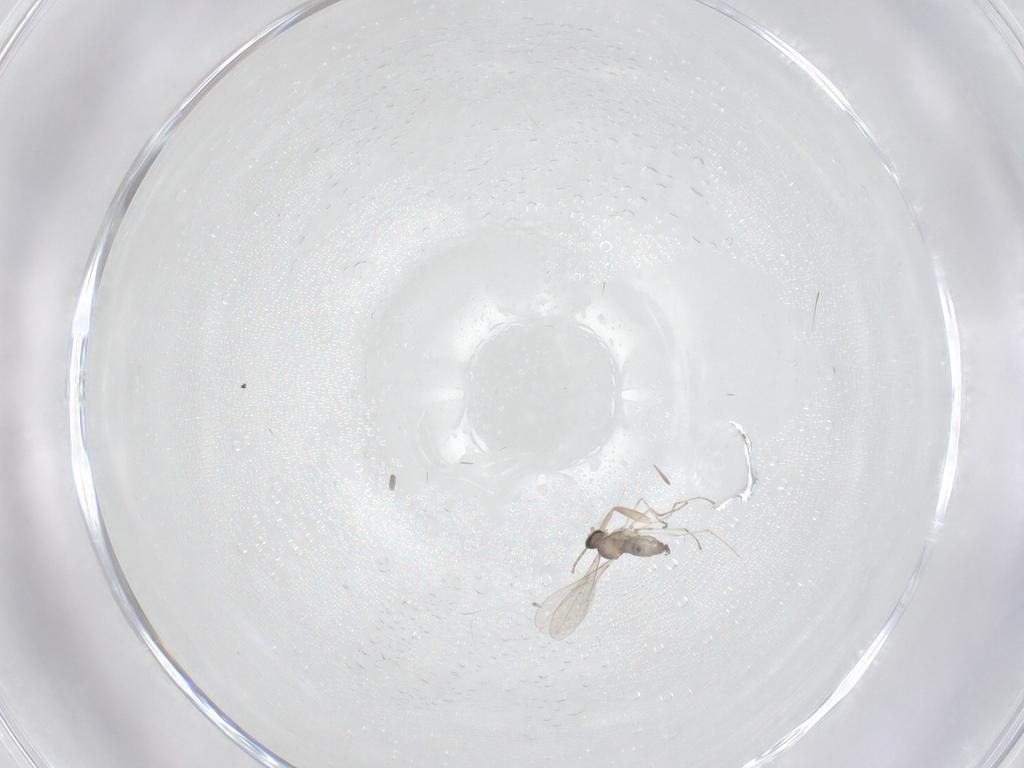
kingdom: Animalia
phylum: Arthropoda
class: Insecta
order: Diptera
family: Cecidomyiidae
